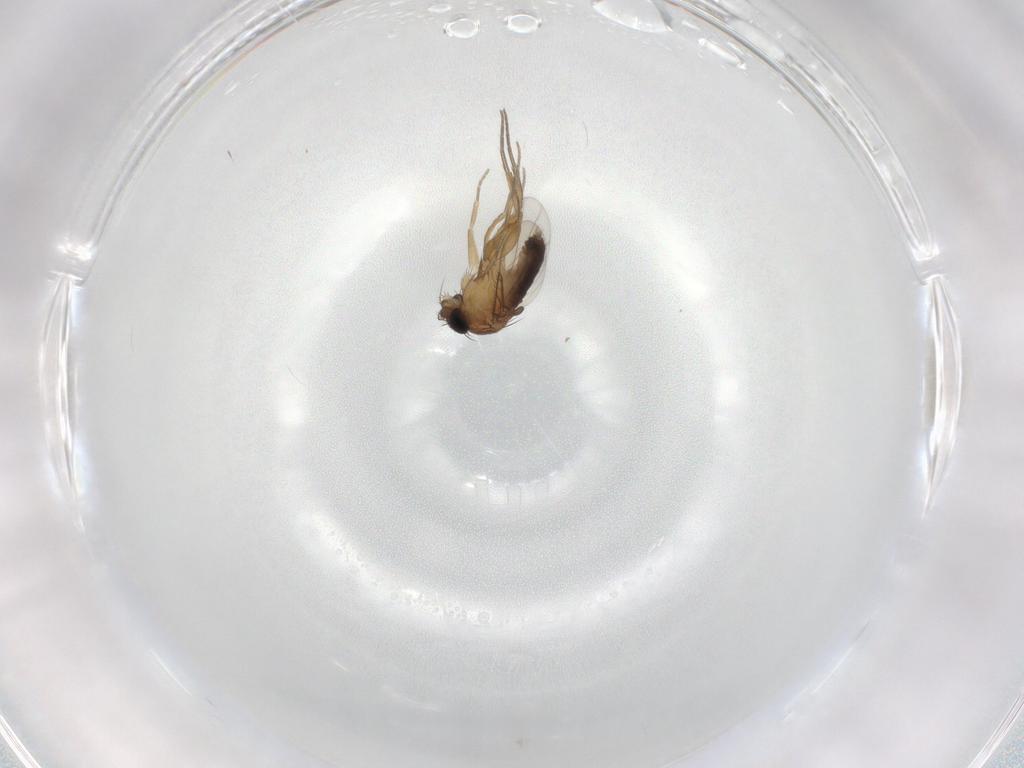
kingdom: Animalia
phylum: Arthropoda
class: Insecta
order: Diptera
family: Phoridae
